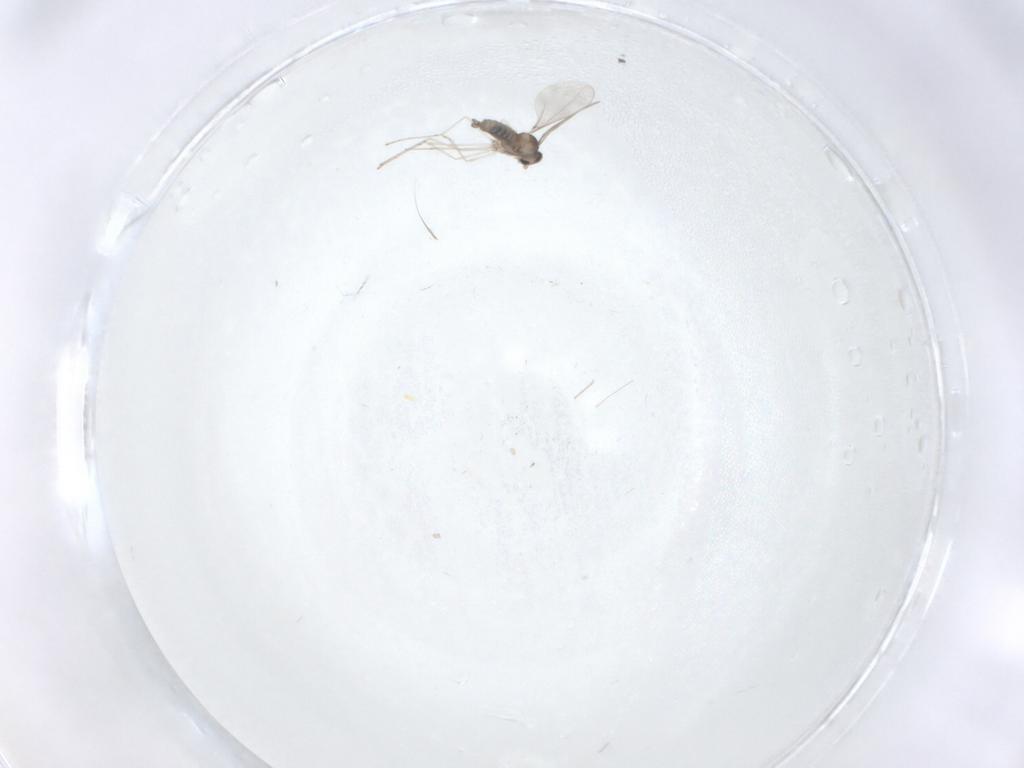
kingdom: Animalia
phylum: Arthropoda
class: Insecta
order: Diptera
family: Cecidomyiidae
